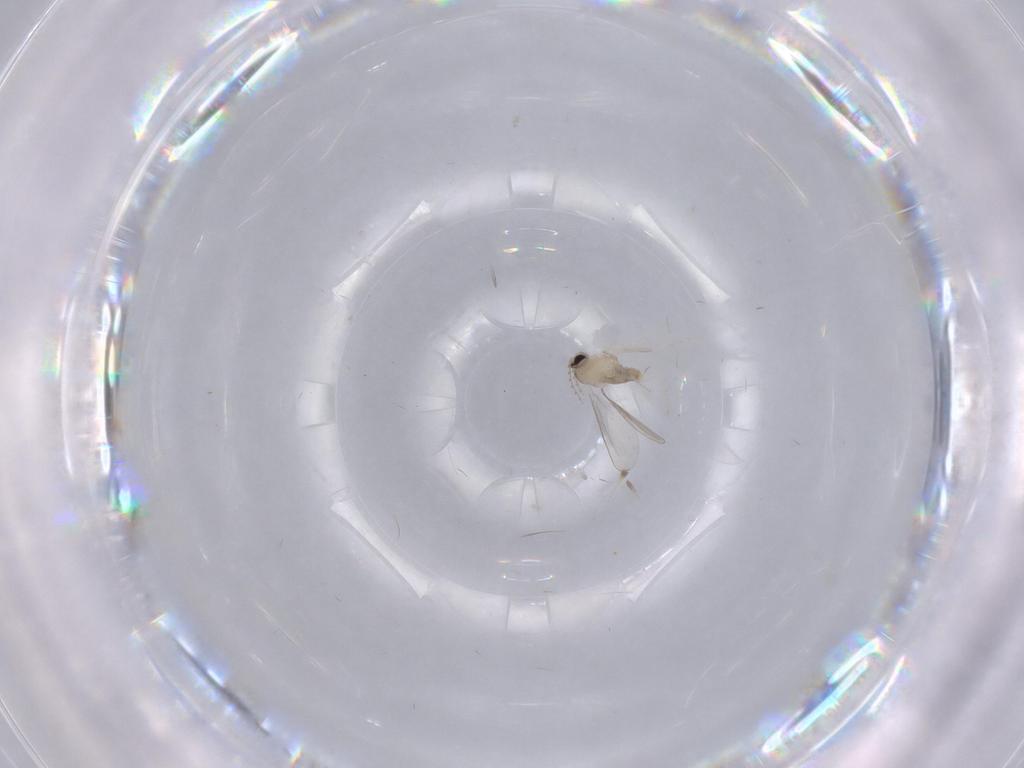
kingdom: Animalia
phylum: Arthropoda
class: Insecta
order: Diptera
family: Cecidomyiidae
